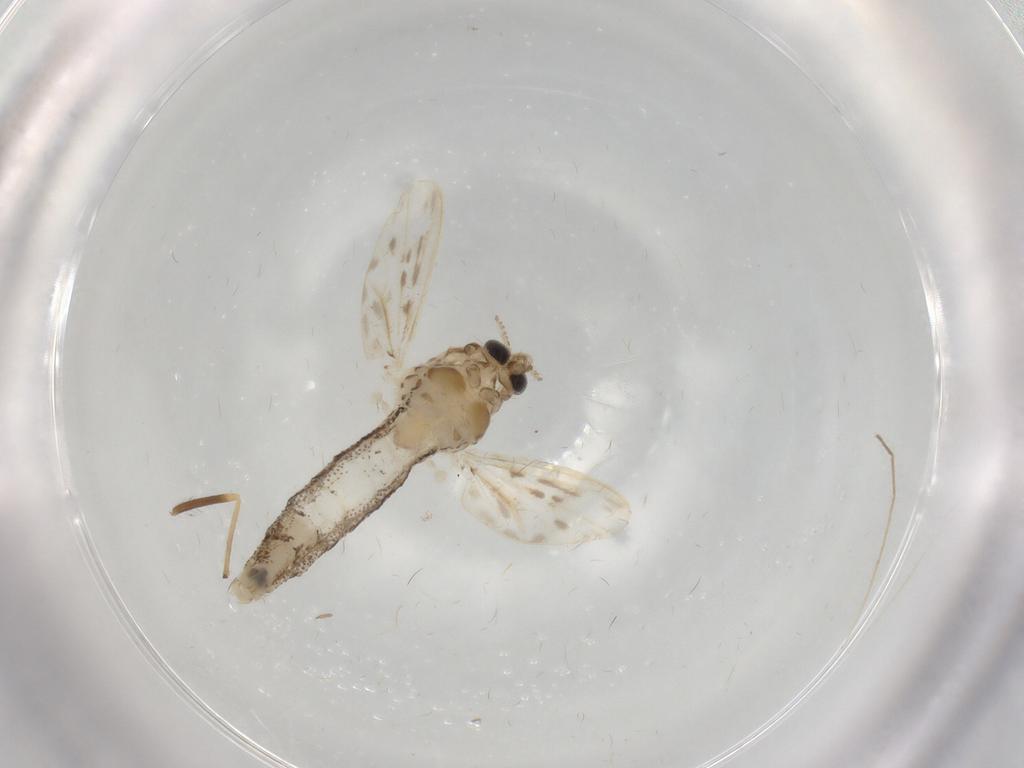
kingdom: Animalia
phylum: Arthropoda
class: Insecta
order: Diptera
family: Chaoboridae
